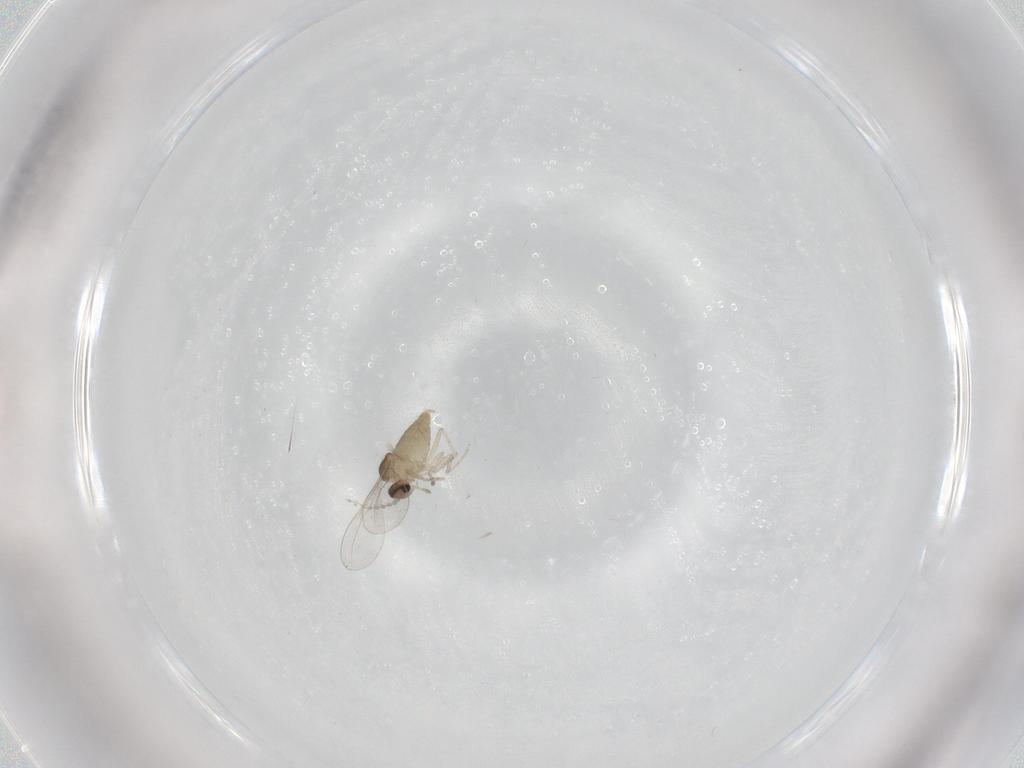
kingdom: Animalia
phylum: Arthropoda
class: Insecta
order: Diptera
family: Cecidomyiidae
